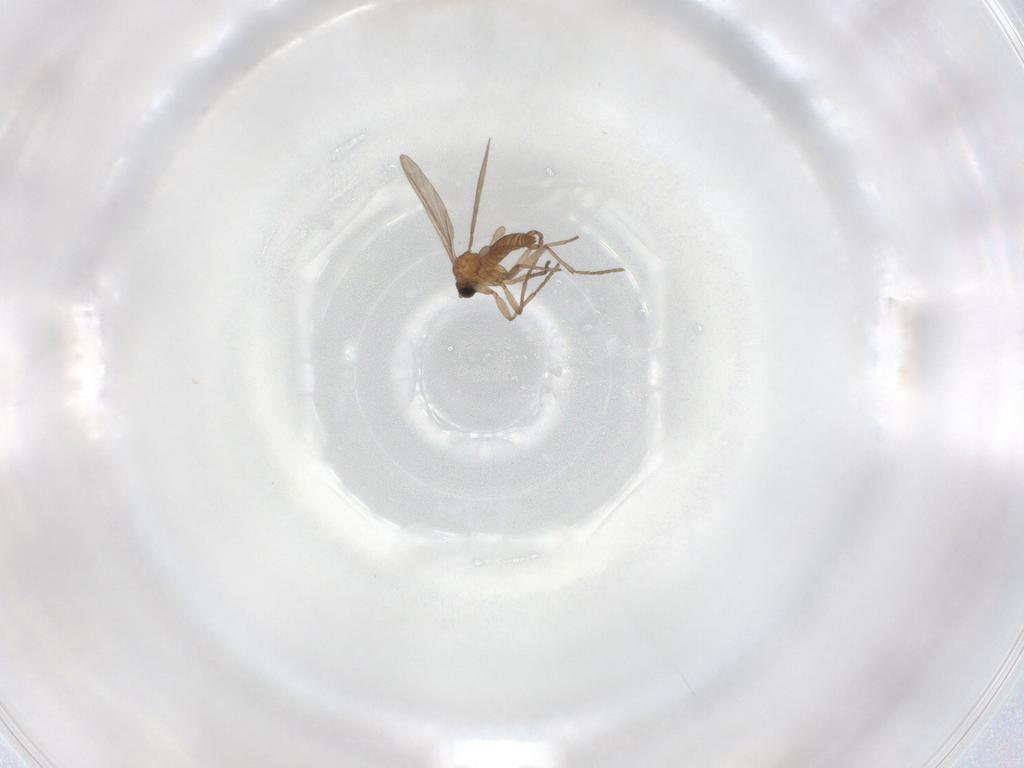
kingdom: Animalia
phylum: Arthropoda
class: Insecta
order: Diptera
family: Sciaridae
